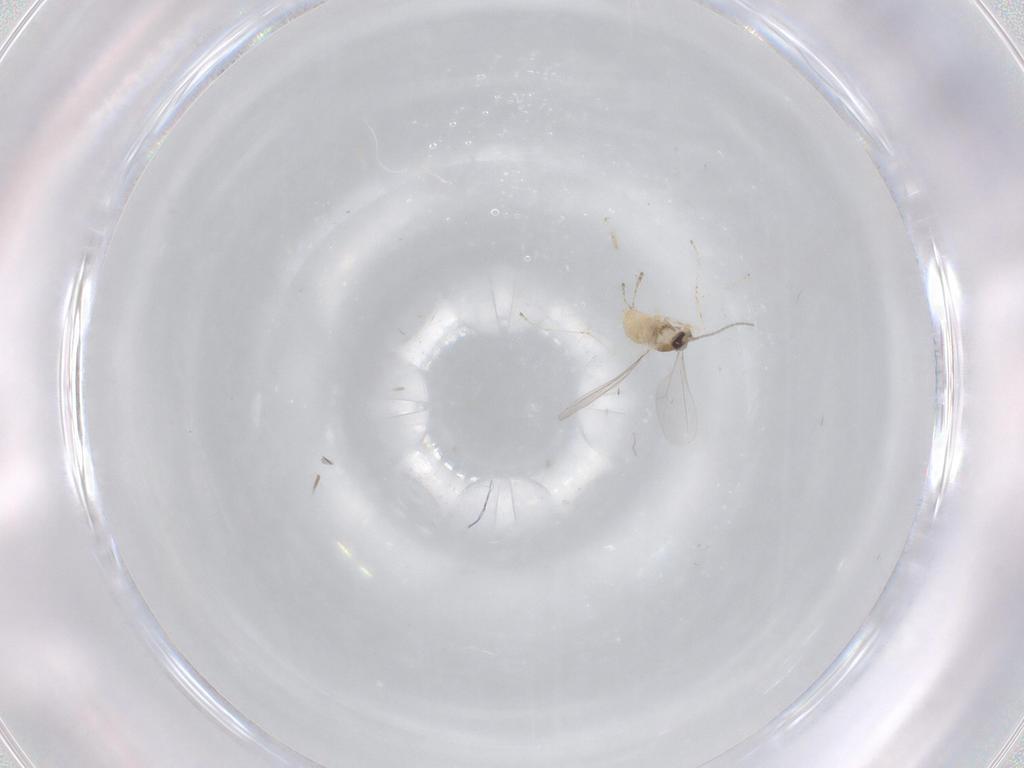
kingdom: Animalia
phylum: Arthropoda
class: Insecta
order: Diptera
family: Cecidomyiidae
